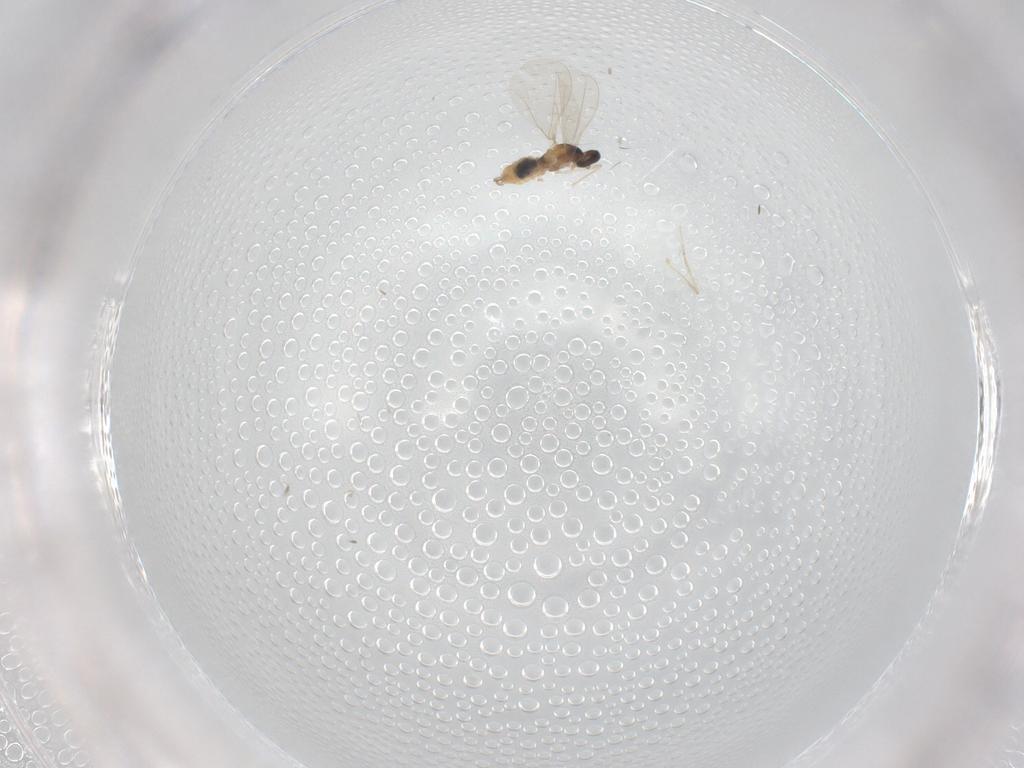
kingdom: Animalia
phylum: Arthropoda
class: Insecta
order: Diptera
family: Cecidomyiidae
